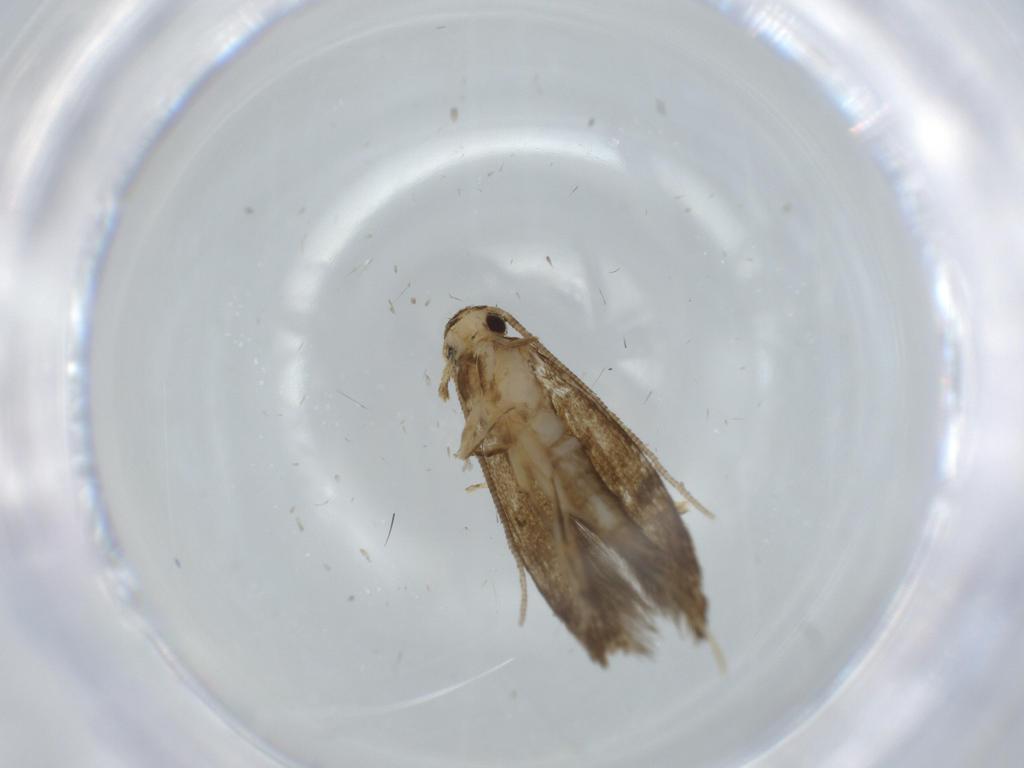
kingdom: Animalia
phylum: Arthropoda
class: Insecta
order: Lepidoptera
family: Tineidae
